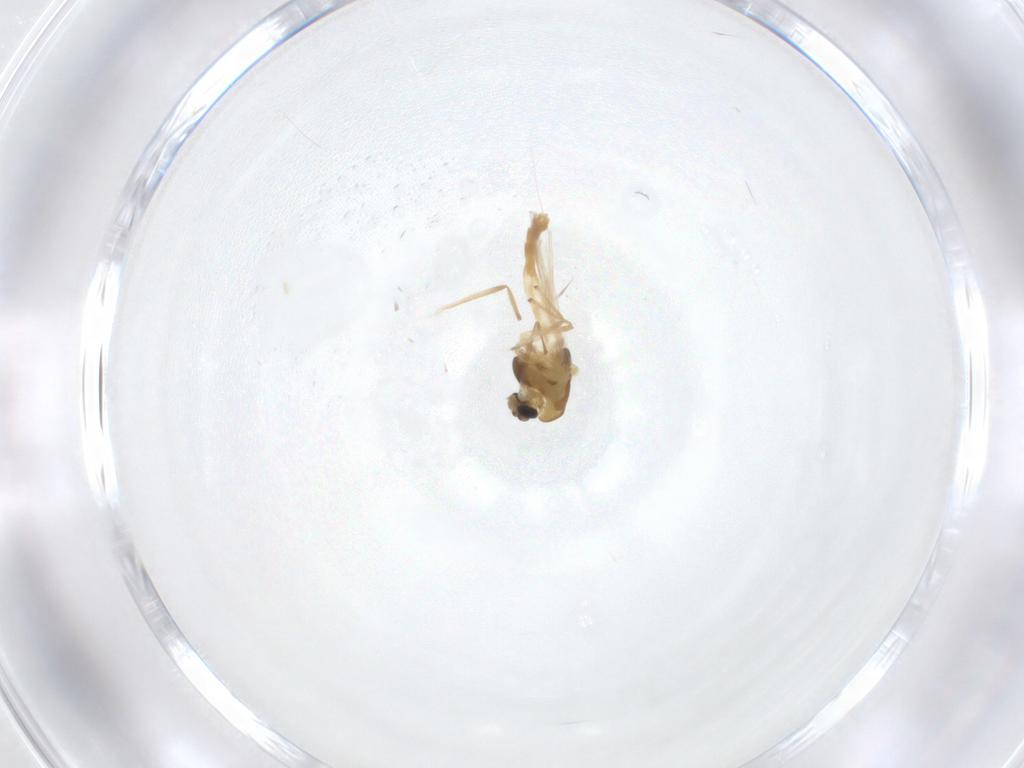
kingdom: Animalia
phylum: Arthropoda
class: Insecta
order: Diptera
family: Chironomidae
